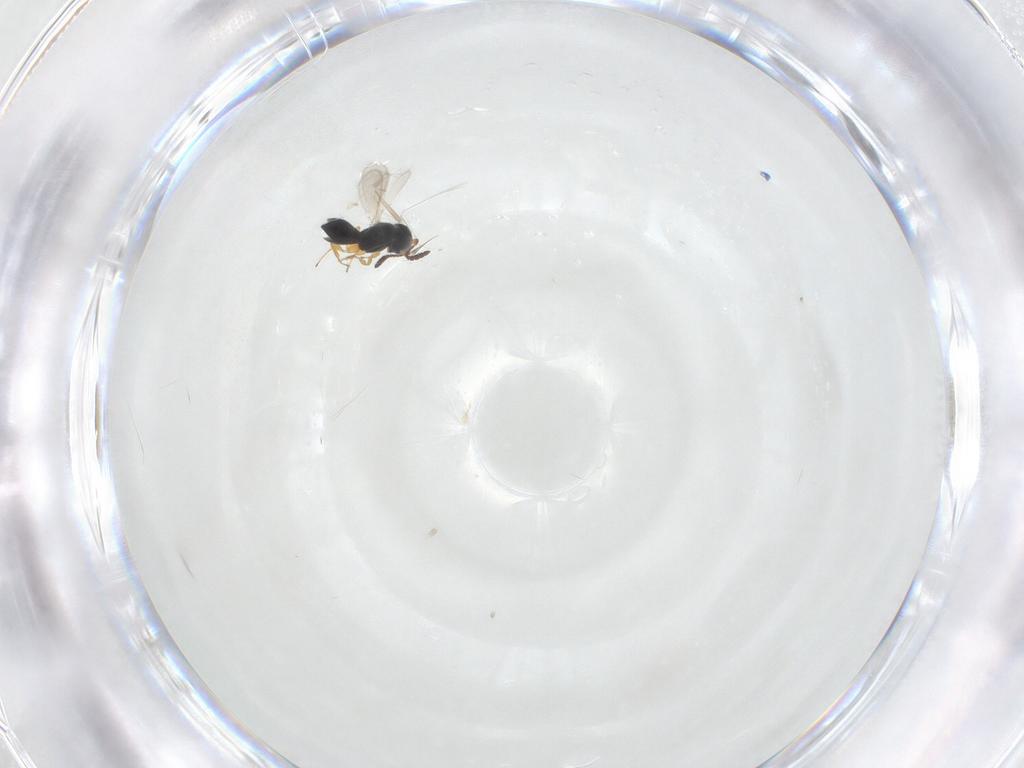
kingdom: Animalia
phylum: Arthropoda
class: Insecta
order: Hymenoptera
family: Scelionidae
